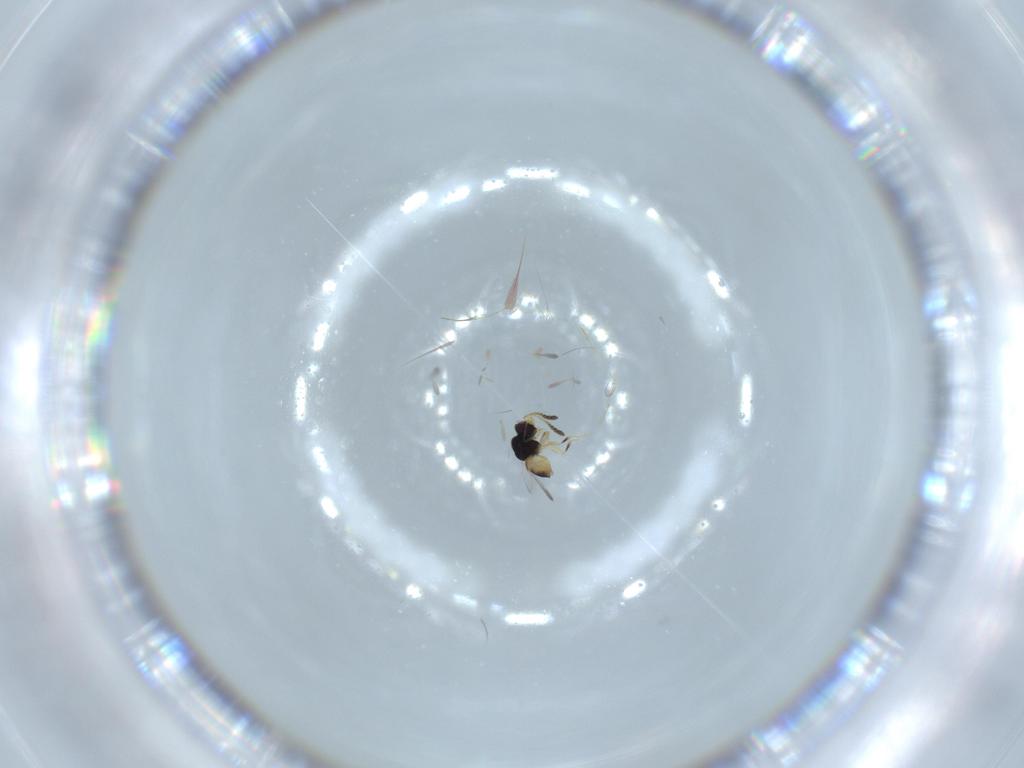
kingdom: Animalia
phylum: Arthropoda
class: Insecta
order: Hymenoptera
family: Ceraphronidae
